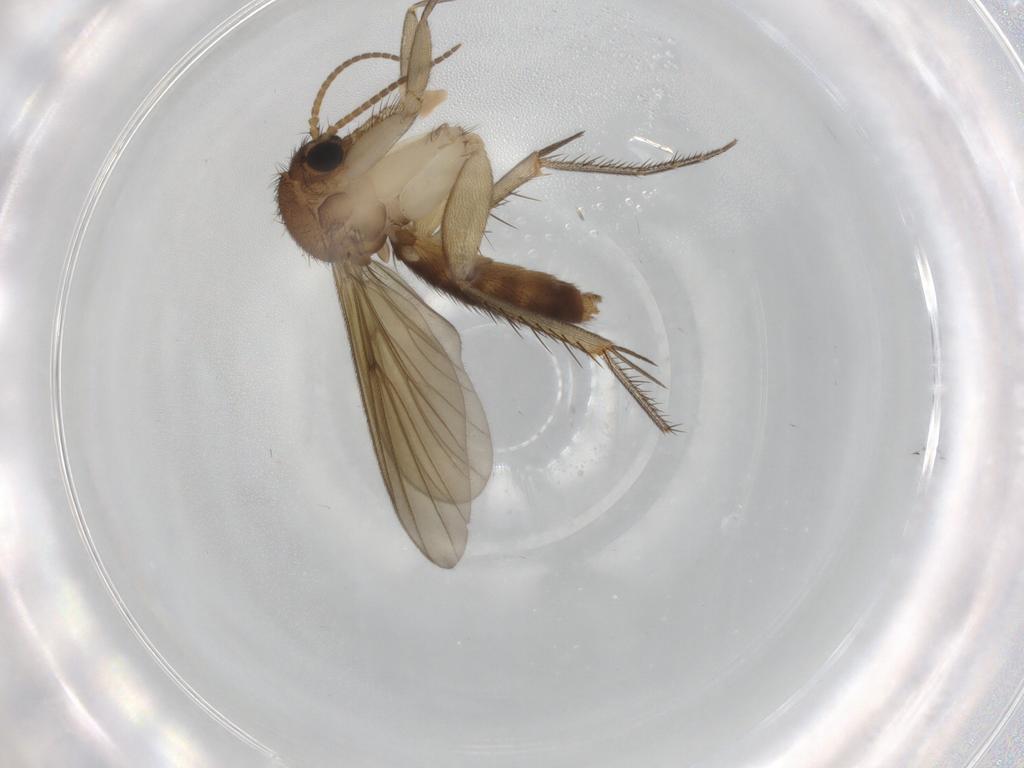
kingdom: Animalia
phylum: Arthropoda
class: Insecta
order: Diptera
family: Mycetophilidae
